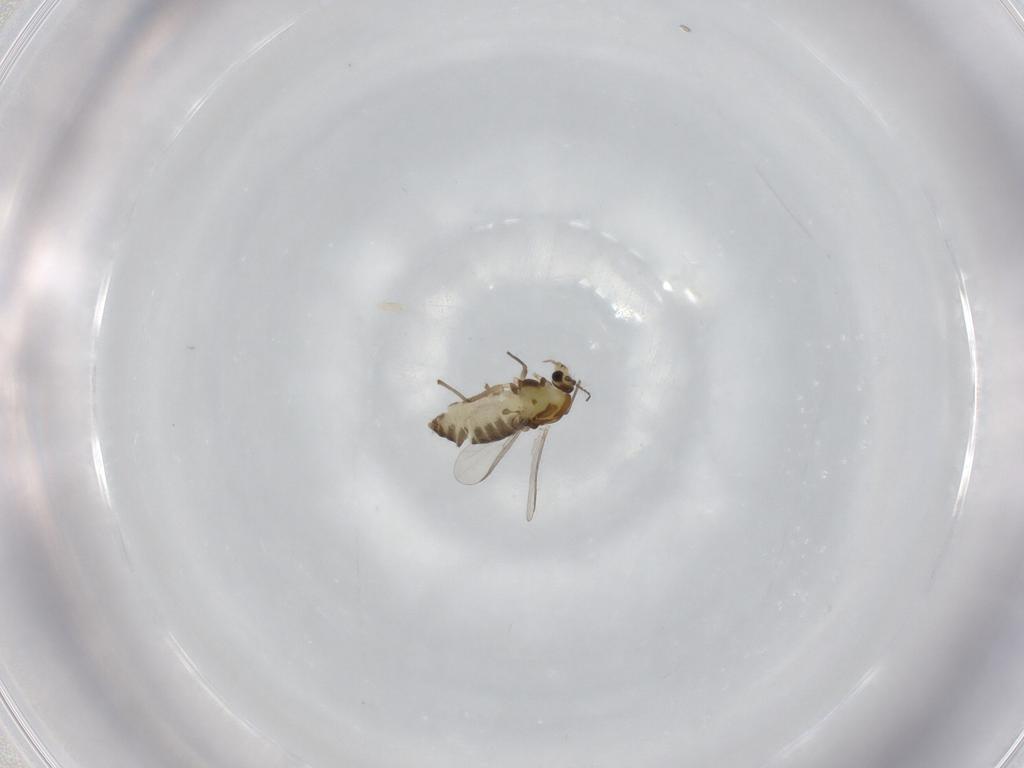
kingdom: Animalia
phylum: Arthropoda
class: Insecta
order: Diptera
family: Chironomidae
